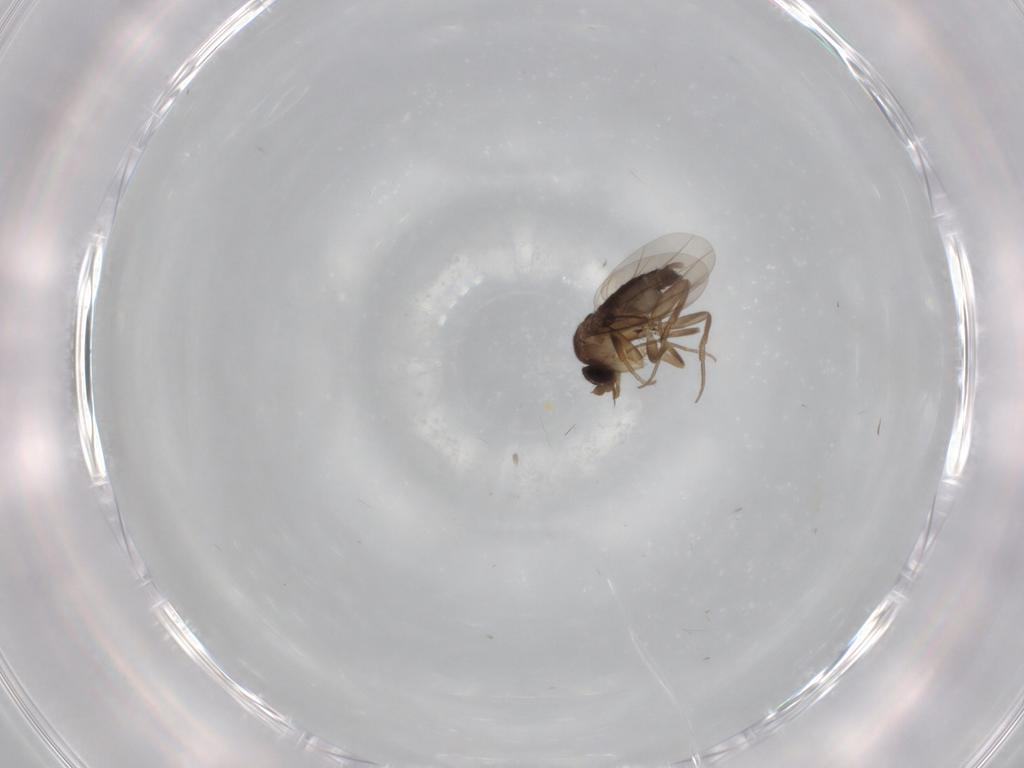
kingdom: Animalia
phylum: Arthropoda
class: Insecta
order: Diptera
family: Phoridae
